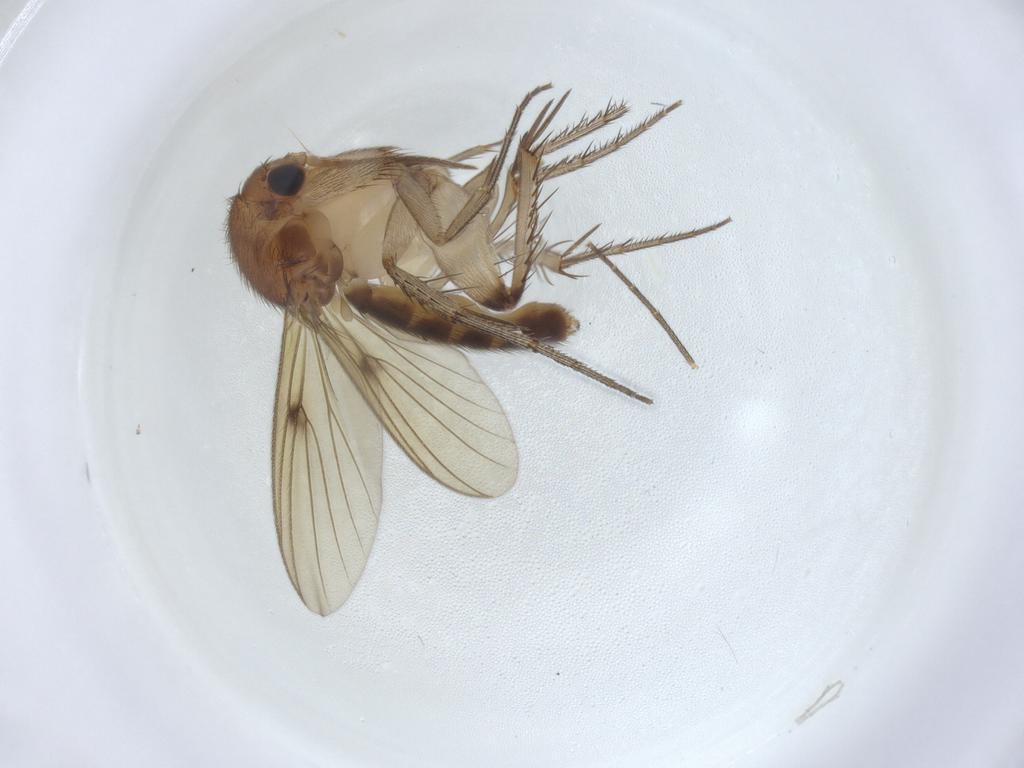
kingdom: Animalia
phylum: Arthropoda
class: Insecta
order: Diptera
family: Mycetophilidae
